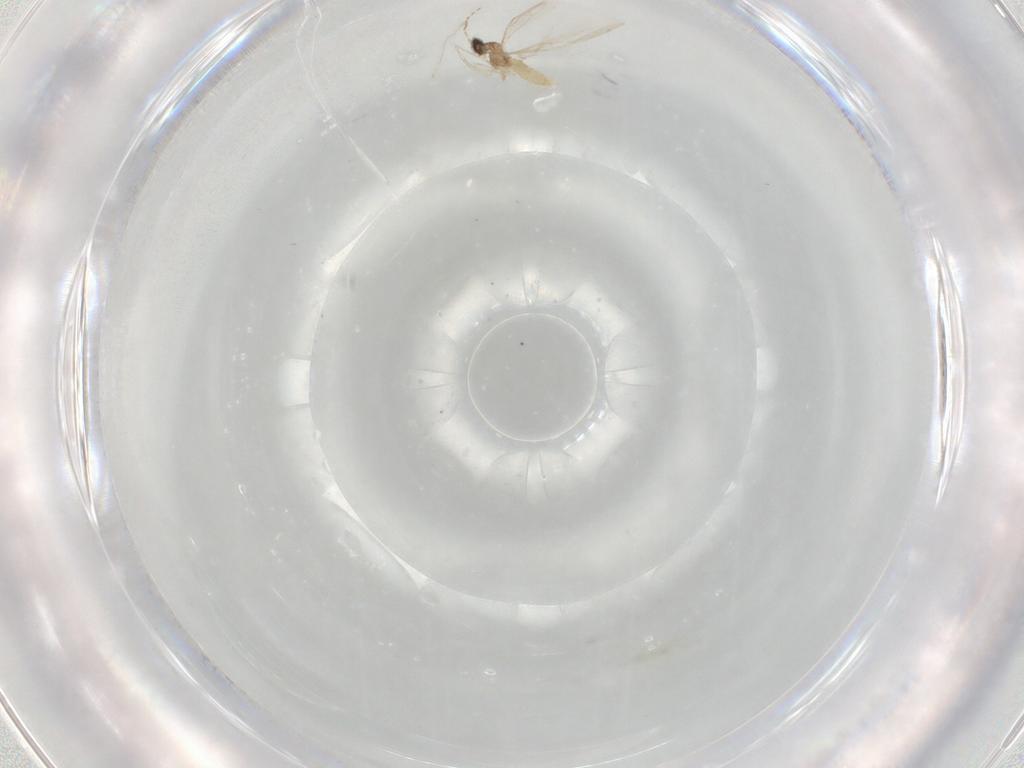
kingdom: Animalia
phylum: Arthropoda
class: Insecta
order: Diptera
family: Cecidomyiidae
